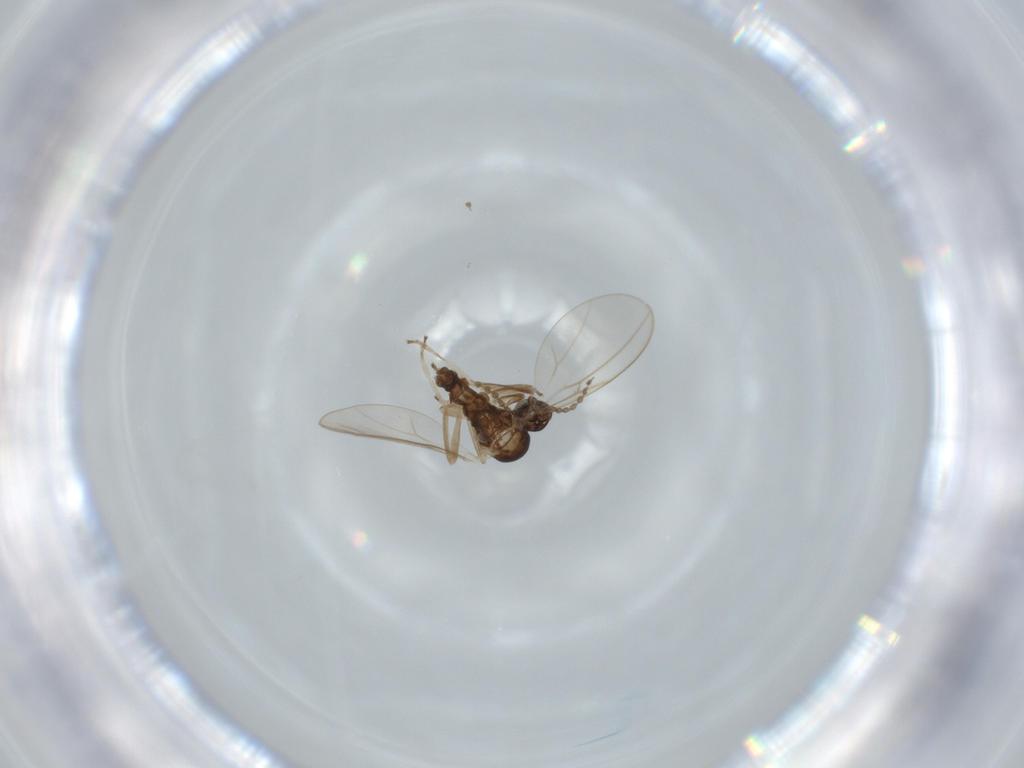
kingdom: Animalia
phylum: Arthropoda
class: Insecta
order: Diptera
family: Cecidomyiidae
